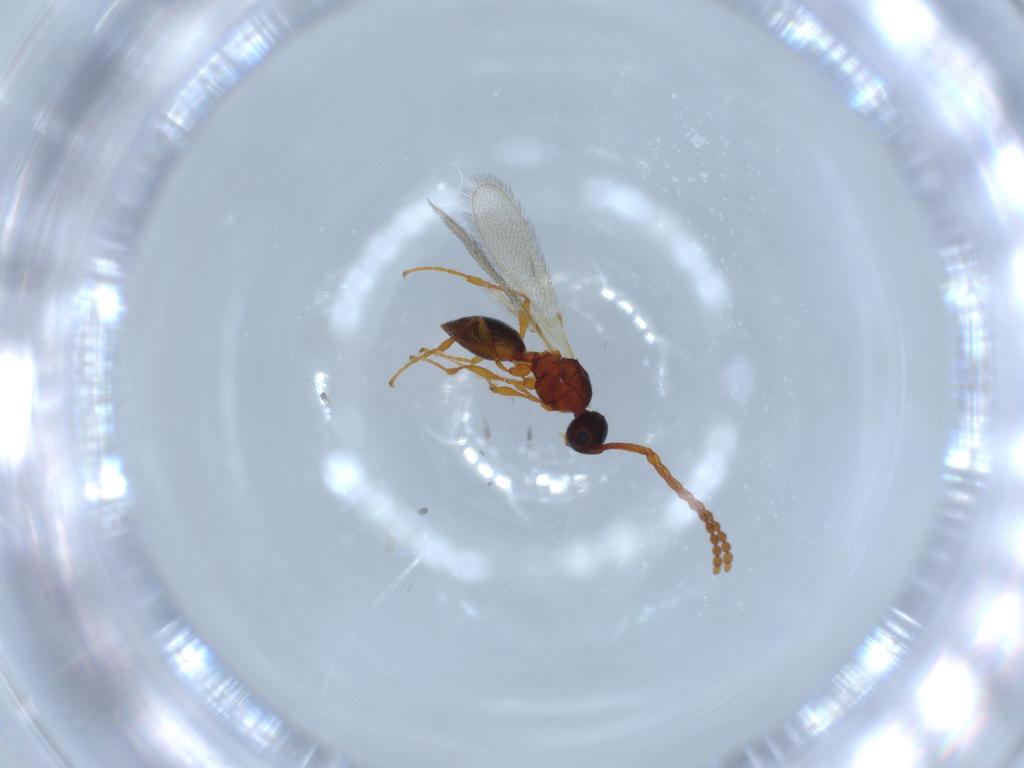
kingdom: Animalia
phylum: Arthropoda
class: Insecta
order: Hymenoptera
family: Diapriidae
